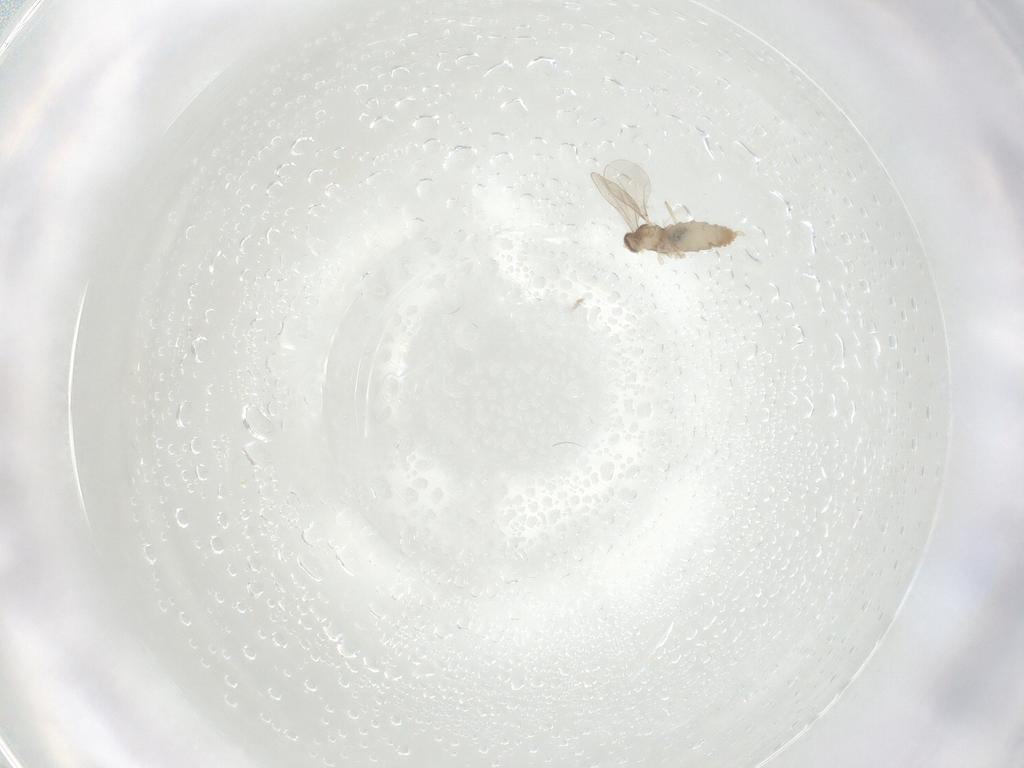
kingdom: Animalia
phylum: Arthropoda
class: Insecta
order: Diptera
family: Cecidomyiidae
